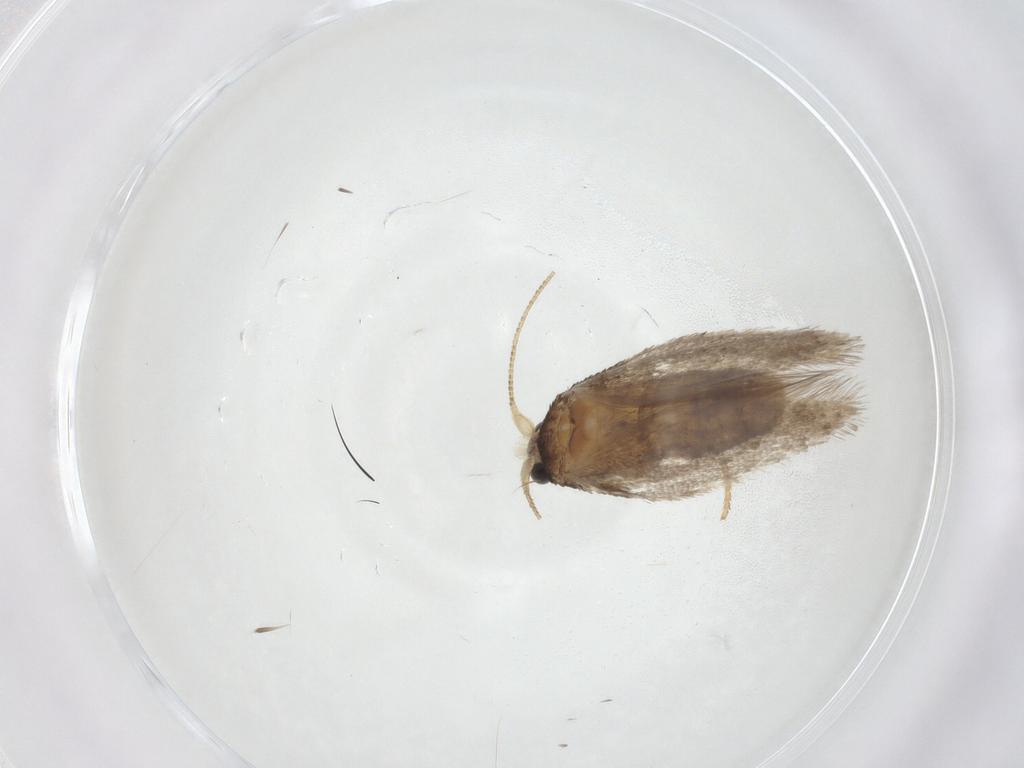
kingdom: Animalia
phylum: Arthropoda
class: Insecta
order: Lepidoptera
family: Nepticulidae
